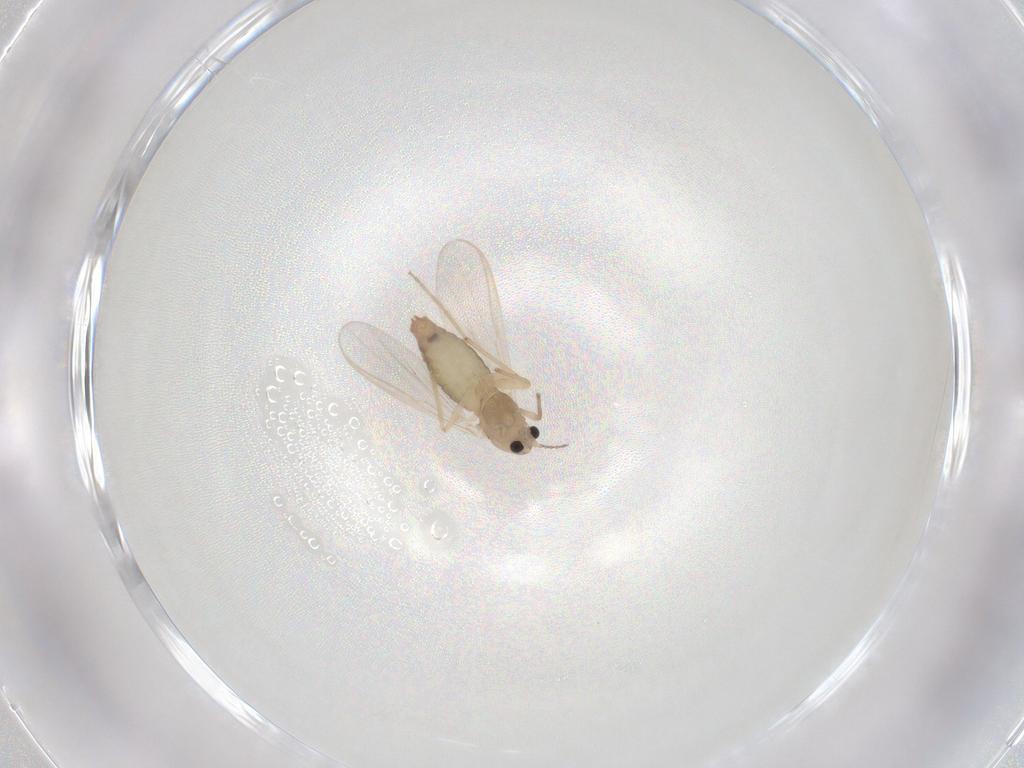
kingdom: Animalia
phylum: Arthropoda
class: Insecta
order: Diptera
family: Chironomidae
